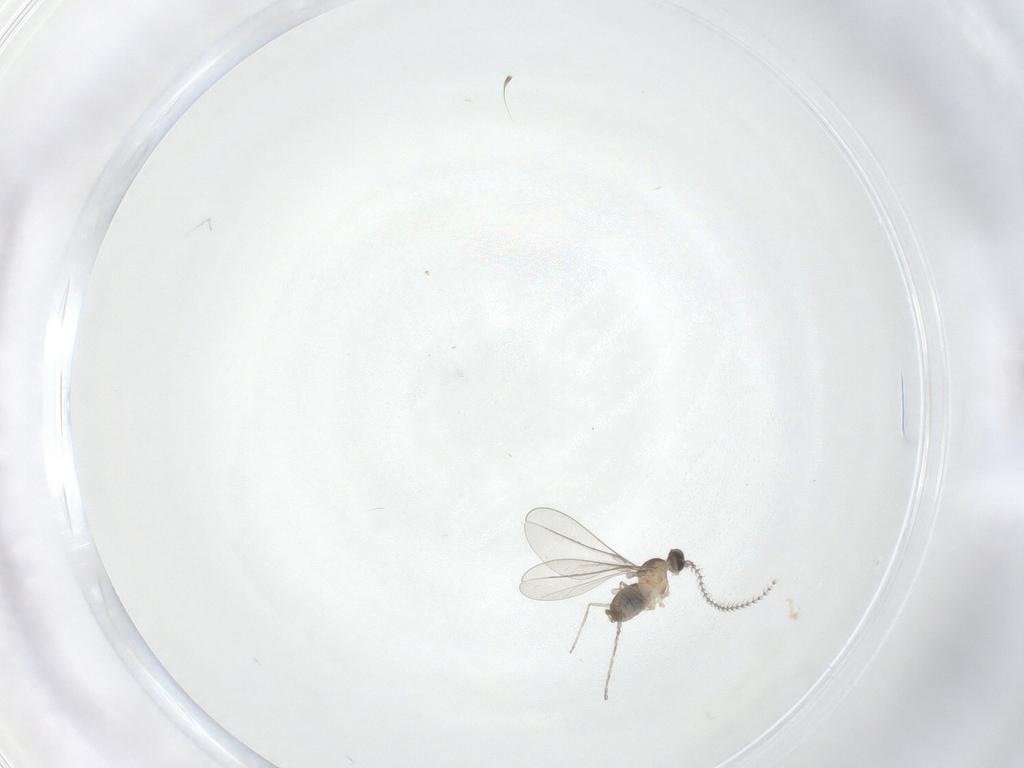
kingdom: Animalia
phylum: Arthropoda
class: Insecta
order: Diptera
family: Cecidomyiidae
